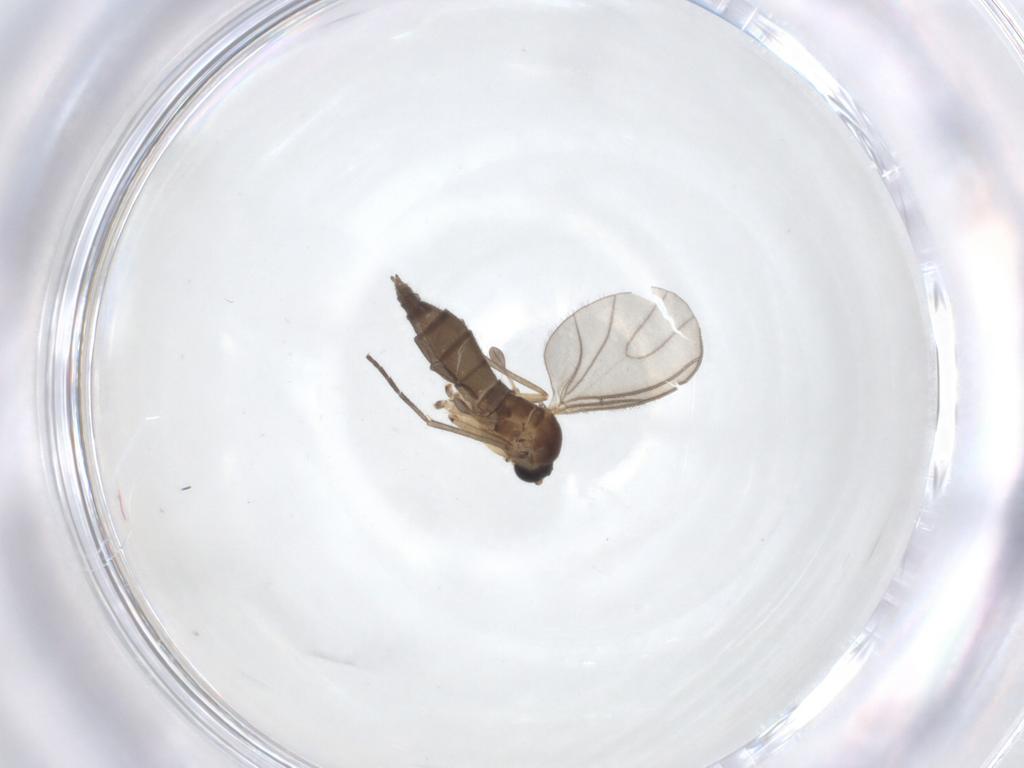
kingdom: Animalia
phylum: Arthropoda
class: Insecta
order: Diptera
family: Sciaridae
